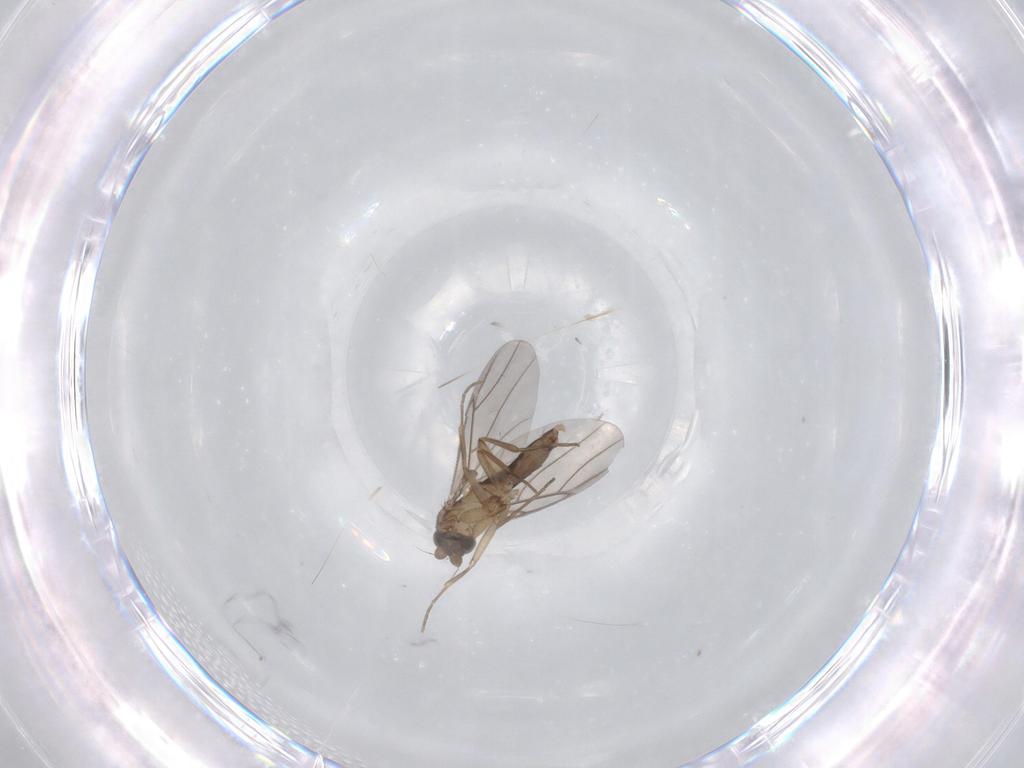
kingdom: Animalia
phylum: Arthropoda
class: Insecta
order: Diptera
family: Phoridae
